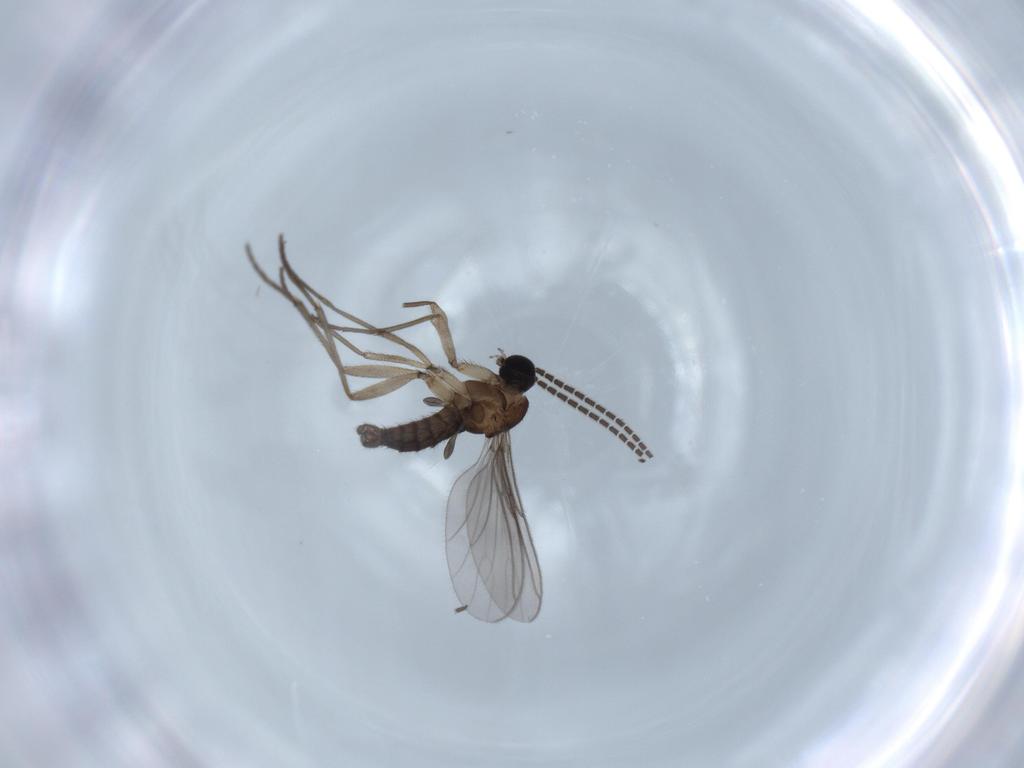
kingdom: Animalia
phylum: Arthropoda
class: Insecta
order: Diptera
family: Sciaridae
